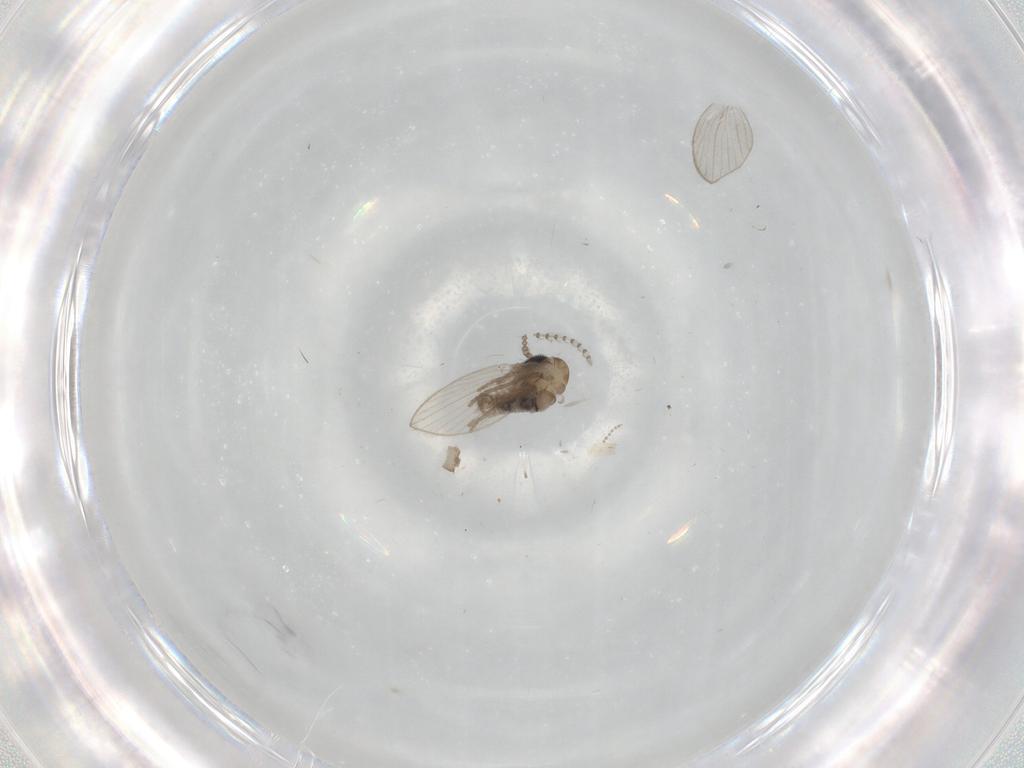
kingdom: Animalia
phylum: Arthropoda
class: Insecta
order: Diptera
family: Psychodidae
